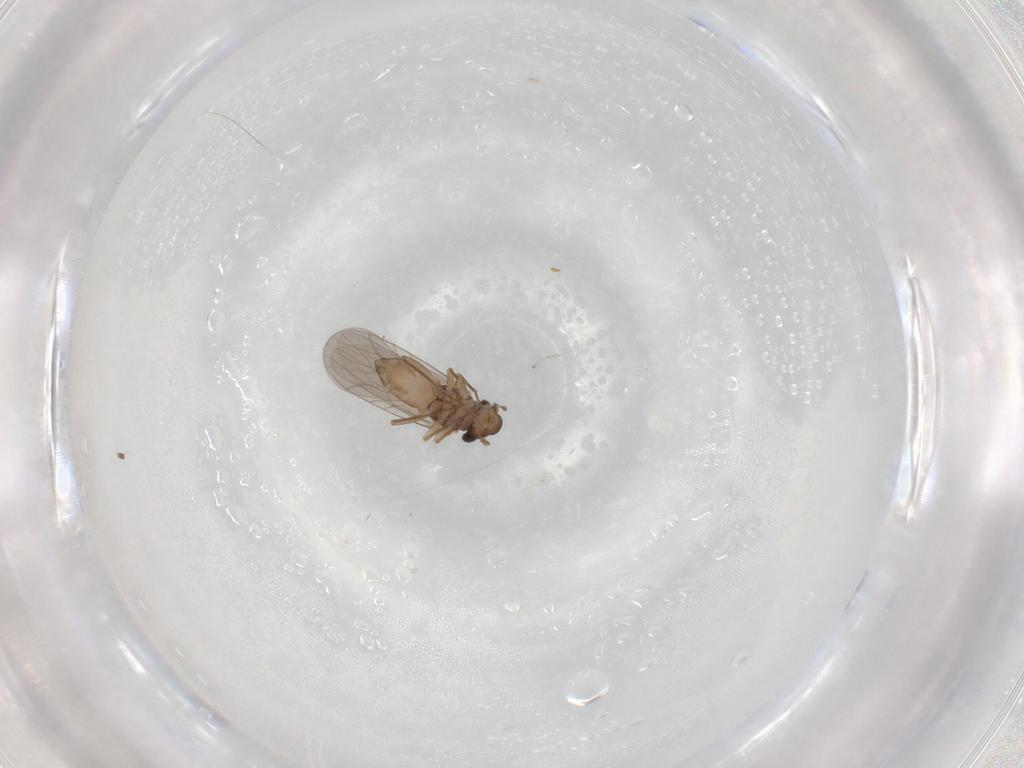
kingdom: Animalia
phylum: Arthropoda
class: Insecta
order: Psocodea
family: Lepidopsocidae
